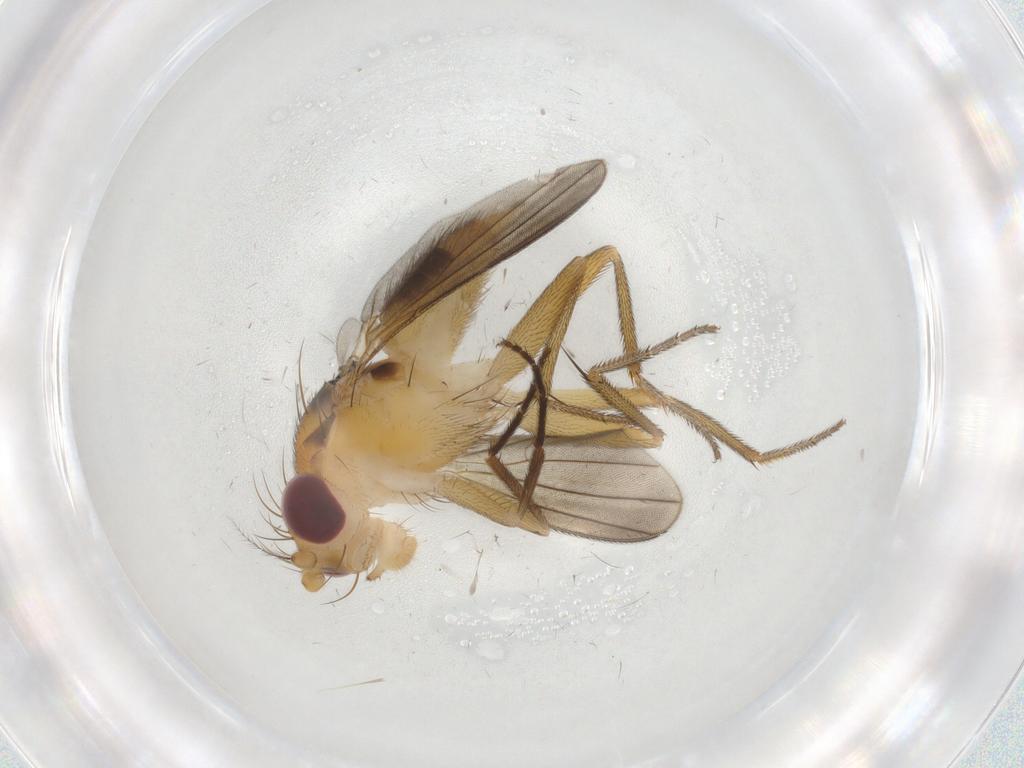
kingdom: Animalia
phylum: Arthropoda
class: Insecta
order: Diptera
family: Clusiidae
